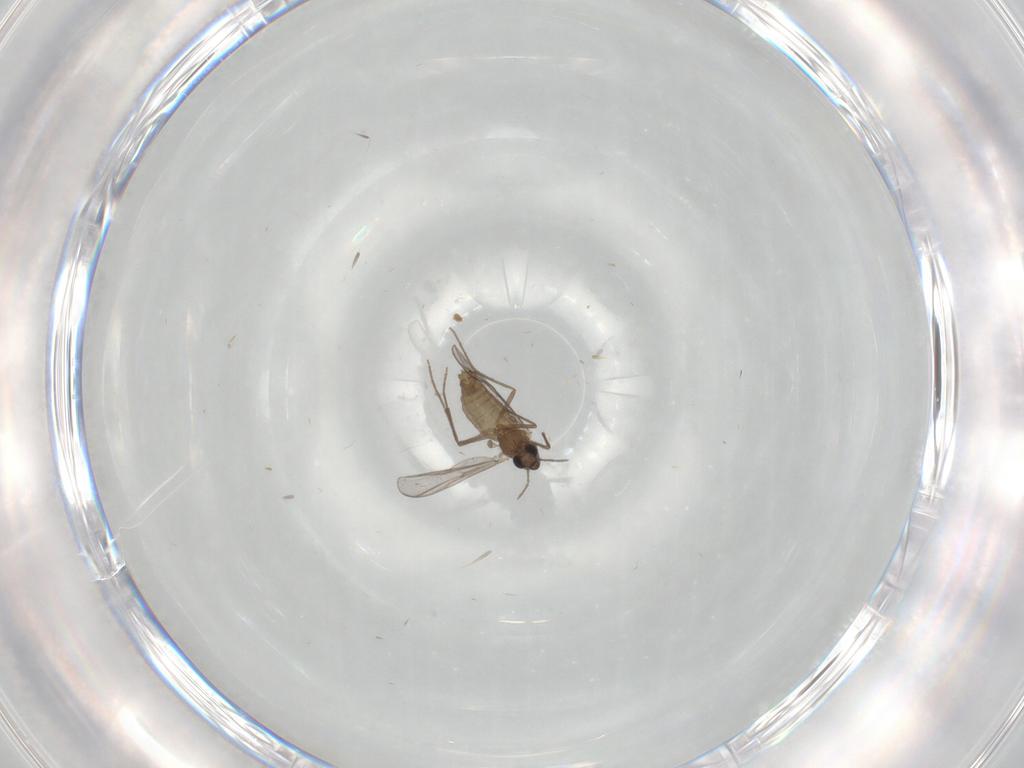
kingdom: Animalia
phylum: Arthropoda
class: Insecta
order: Diptera
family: Chironomidae
